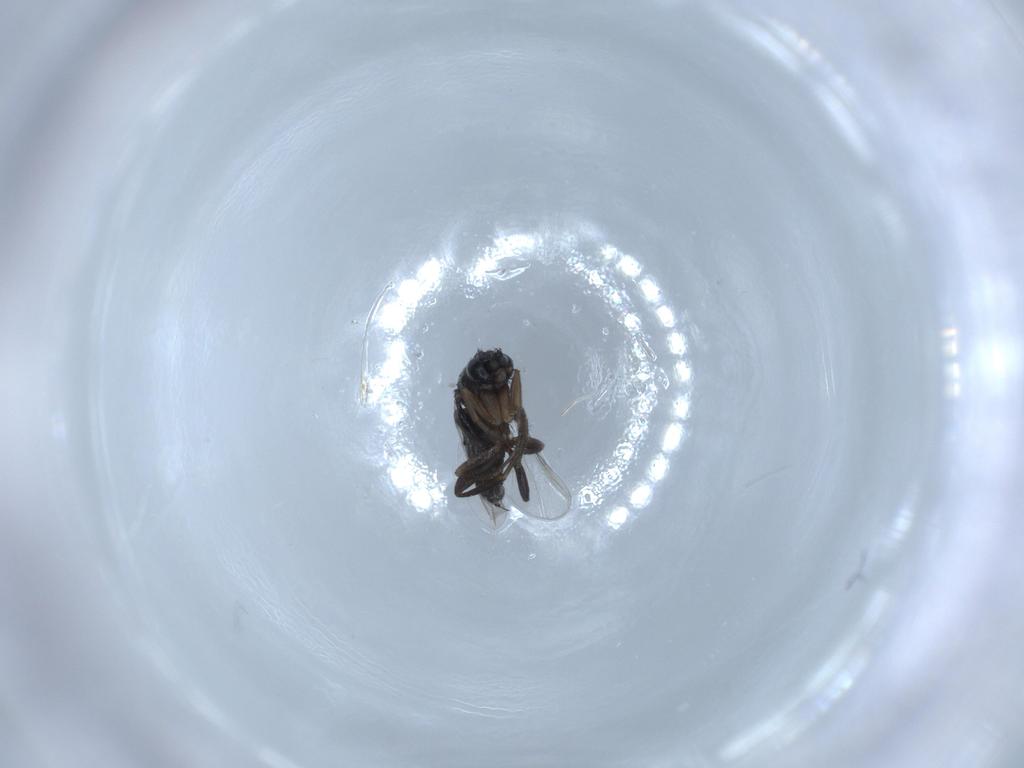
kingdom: Animalia
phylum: Arthropoda
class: Insecta
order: Diptera
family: Phoridae
